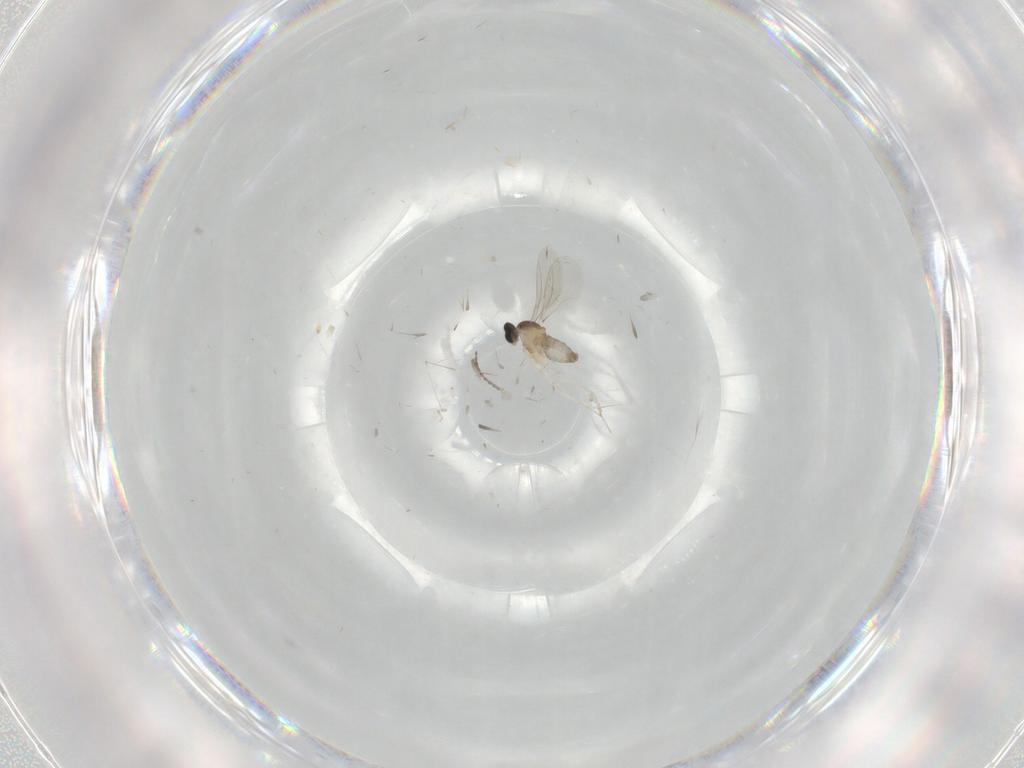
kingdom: Animalia
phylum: Arthropoda
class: Insecta
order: Diptera
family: Cecidomyiidae
